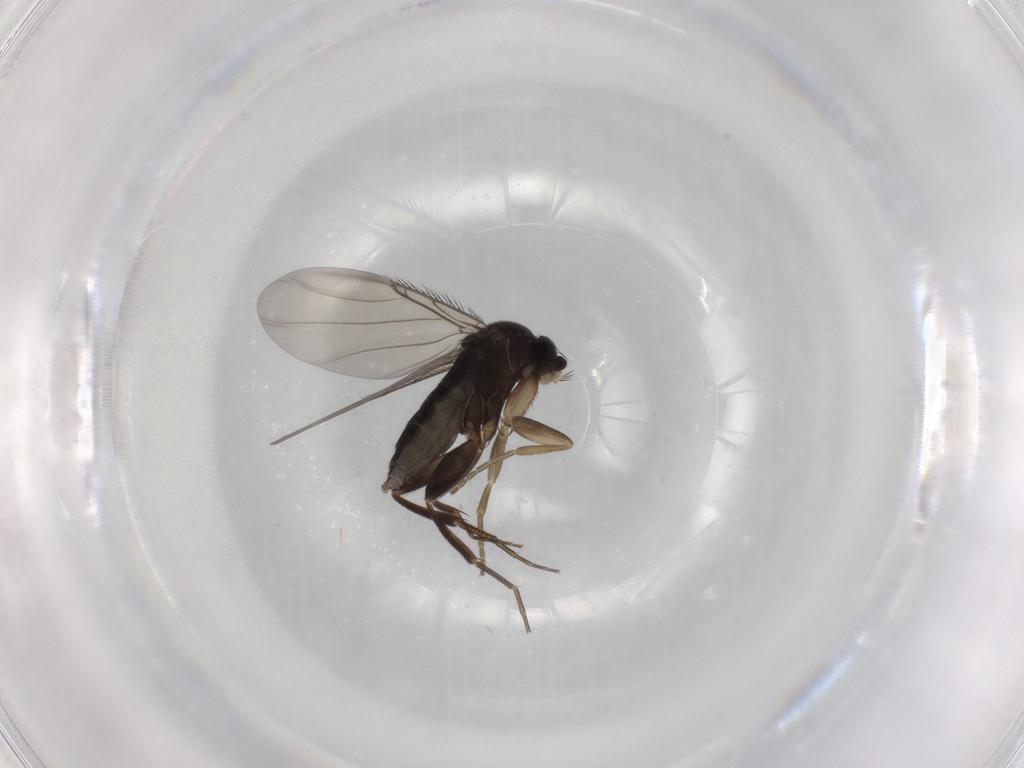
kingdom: Animalia
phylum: Arthropoda
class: Insecta
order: Diptera
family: Phoridae
